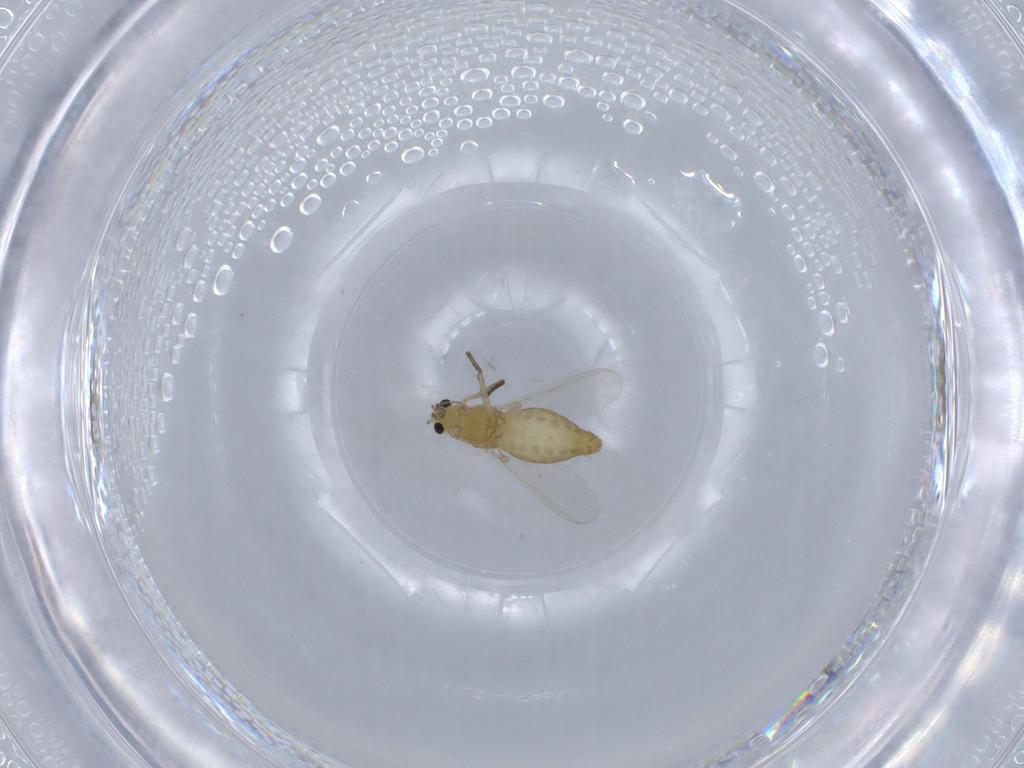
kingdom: Animalia
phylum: Arthropoda
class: Insecta
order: Diptera
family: Chironomidae
